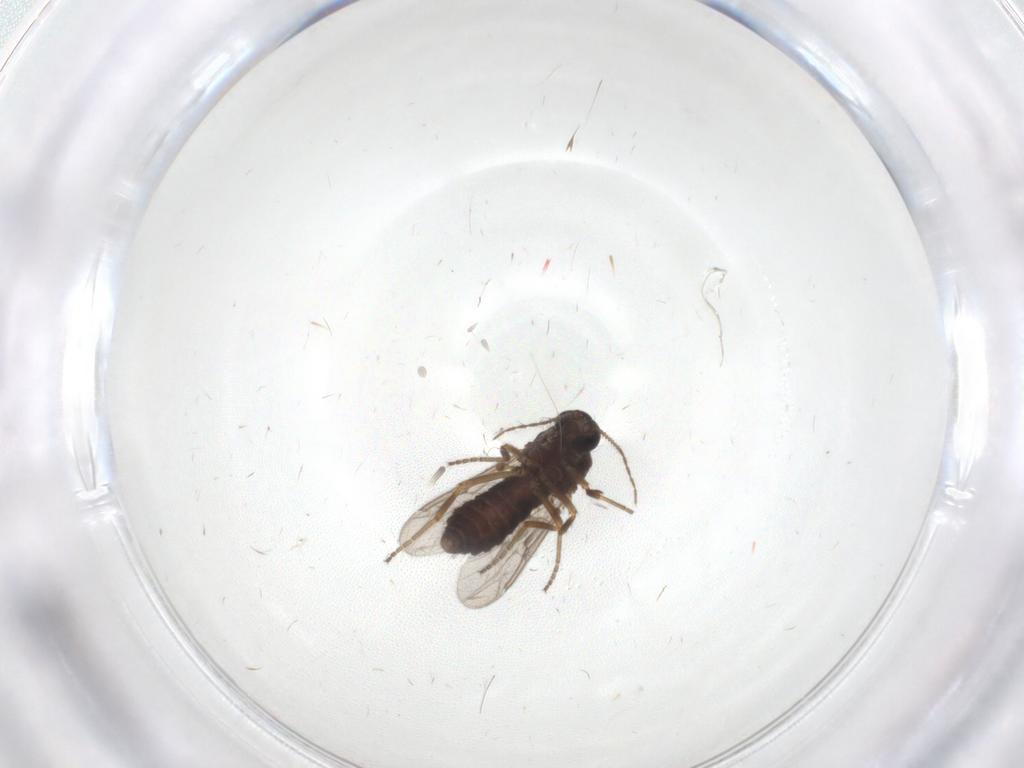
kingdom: Animalia
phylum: Arthropoda
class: Insecta
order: Diptera
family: Ceratopogonidae
